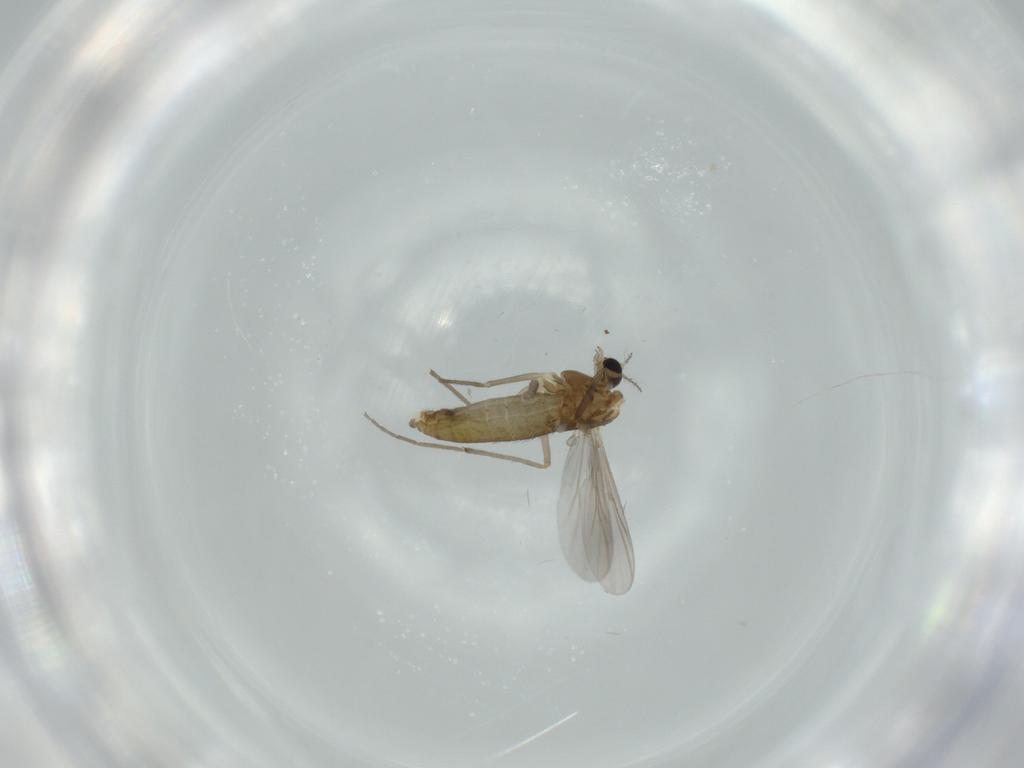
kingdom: Animalia
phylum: Arthropoda
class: Insecta
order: Diptera
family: Chironomidae
